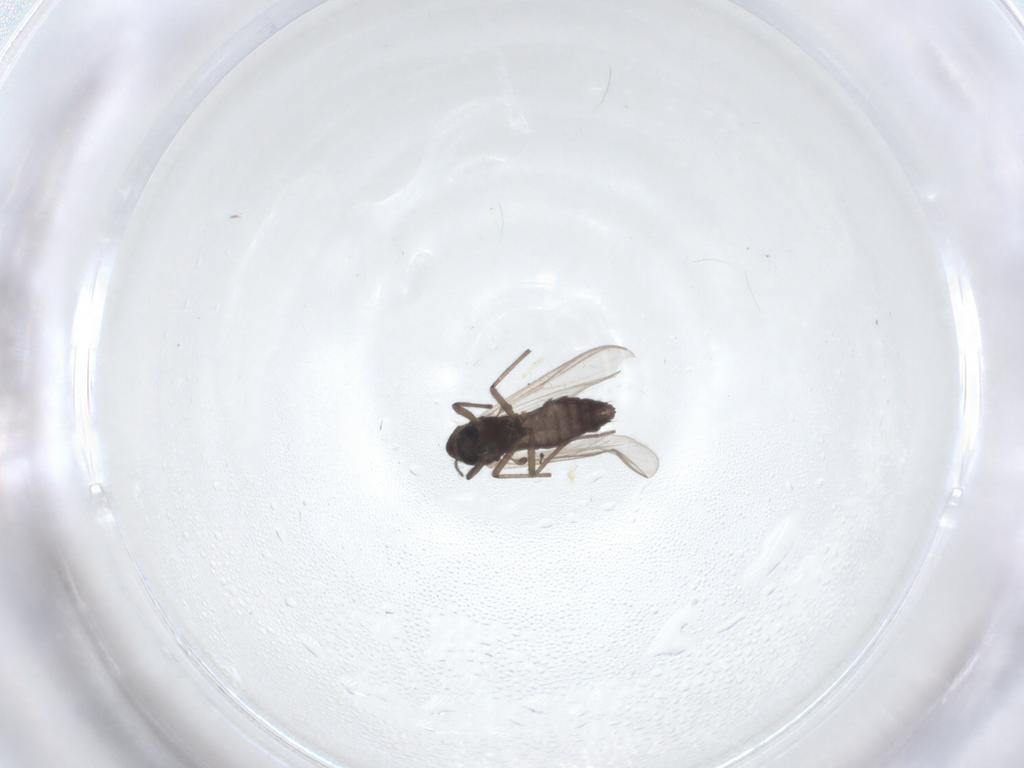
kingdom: Animalia
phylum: Arthropoda
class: Insecta
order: Diptera
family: Chironomidae
